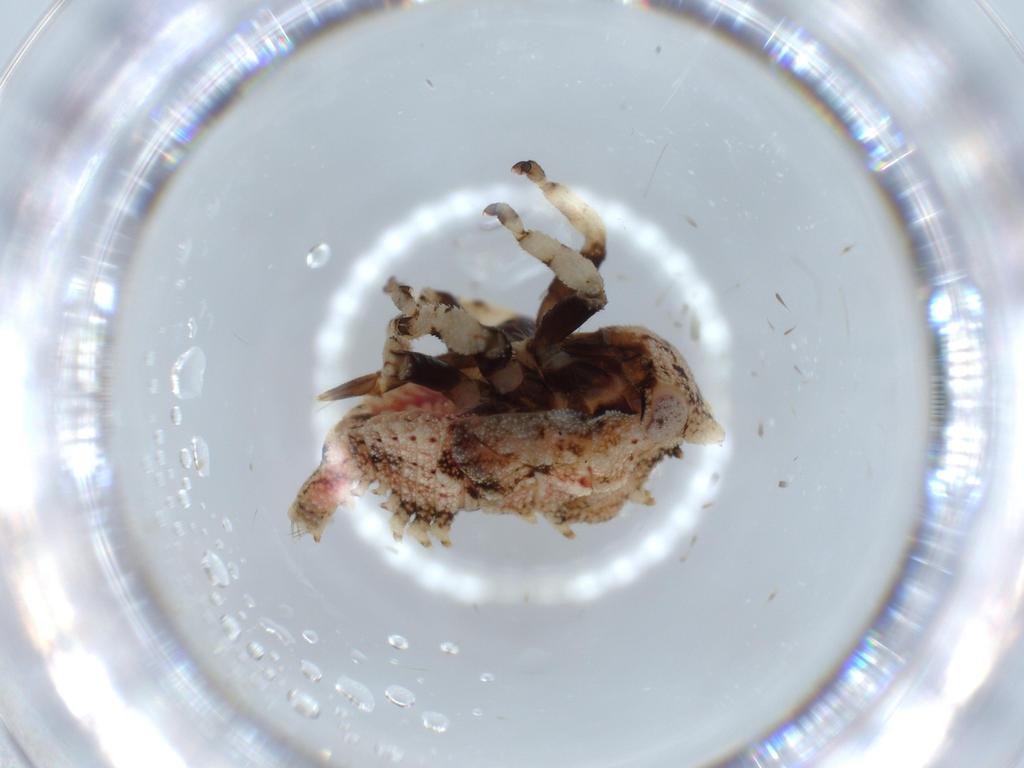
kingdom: Animalia
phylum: Arthropoda
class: Insecta
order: Hemiptera
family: Membracidae
